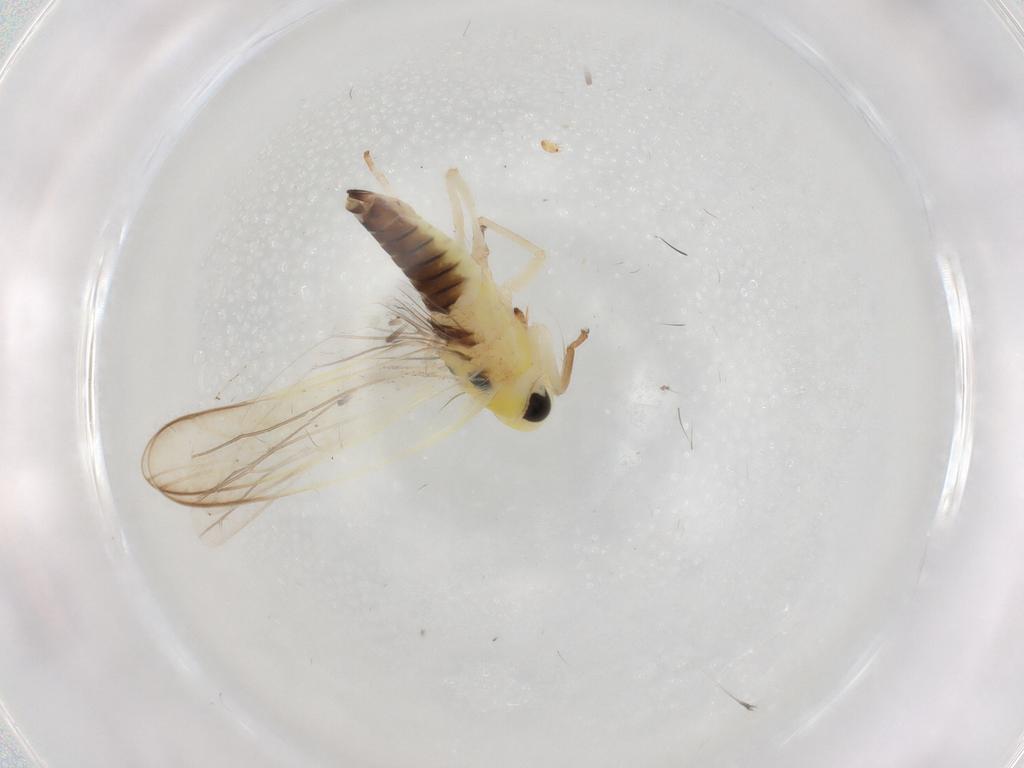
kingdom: Animalia
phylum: Arthropoda
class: Insecta
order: Hemiptera
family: Cicadellidae
